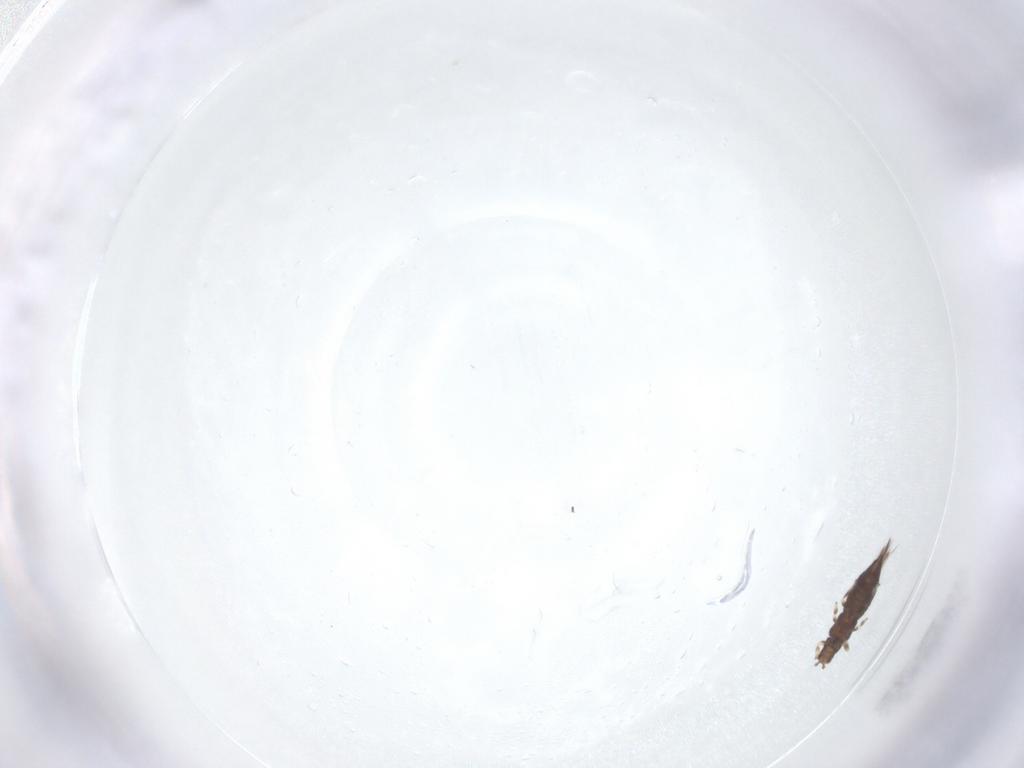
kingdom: Animalia
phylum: Arthropoda
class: Insecta
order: Thysanoptera
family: Thripidae
